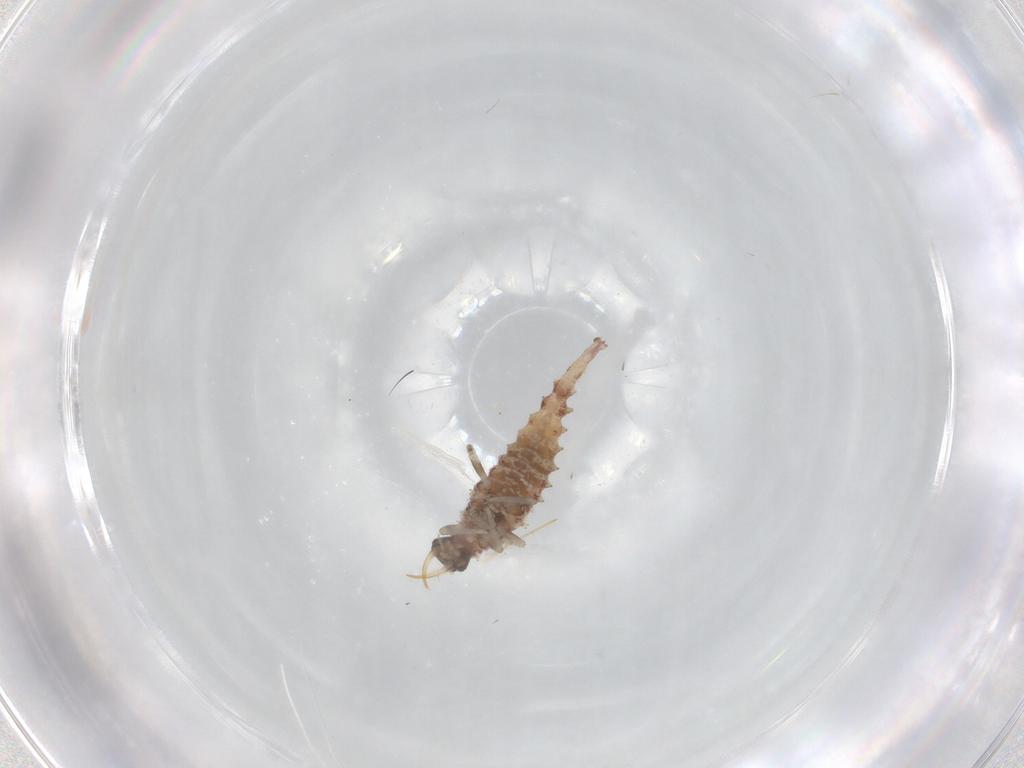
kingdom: Animalia
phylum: Arthropoda
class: Insecta
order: Neuroptera
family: Chrysopidae
